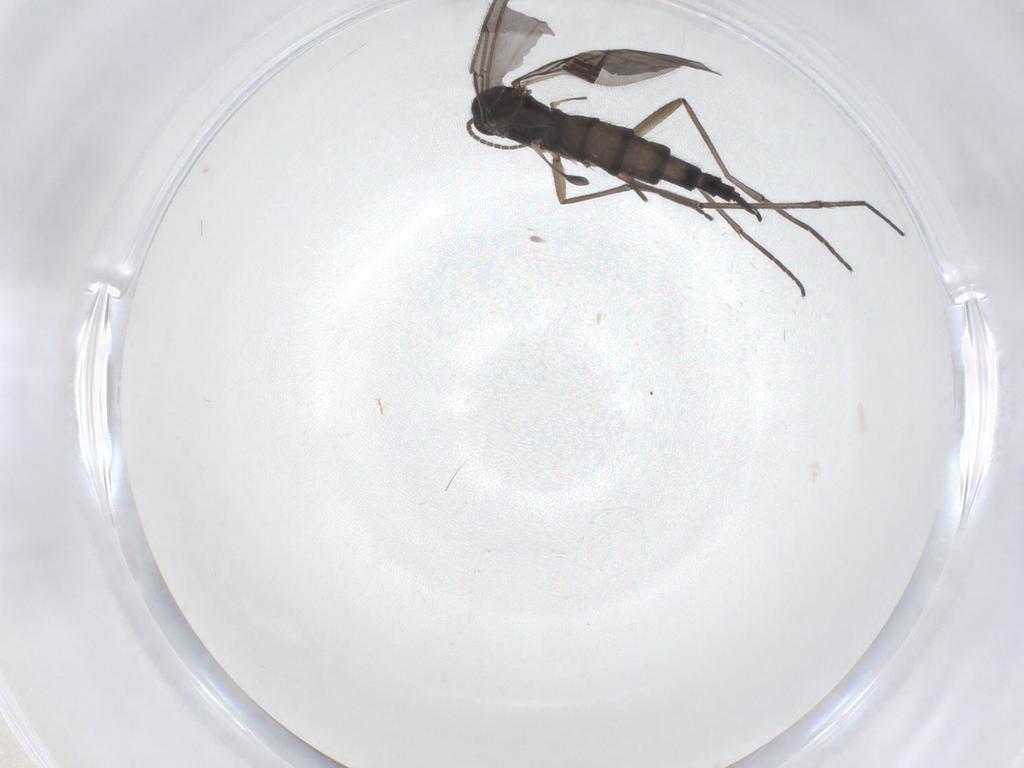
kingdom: Animalia
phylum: Arthropoda
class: Insecta
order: Diptera
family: Sciaridae
